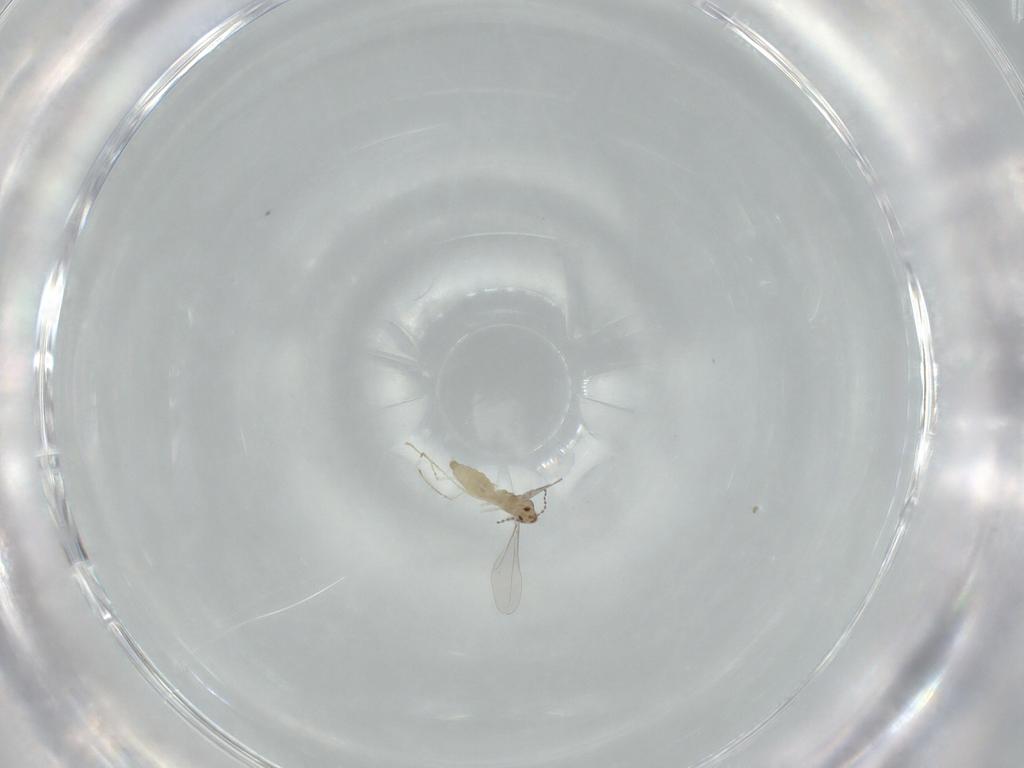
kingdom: Animalia
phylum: Arthropoda
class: Insecta
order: Diptera
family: Cecidomyiidae
